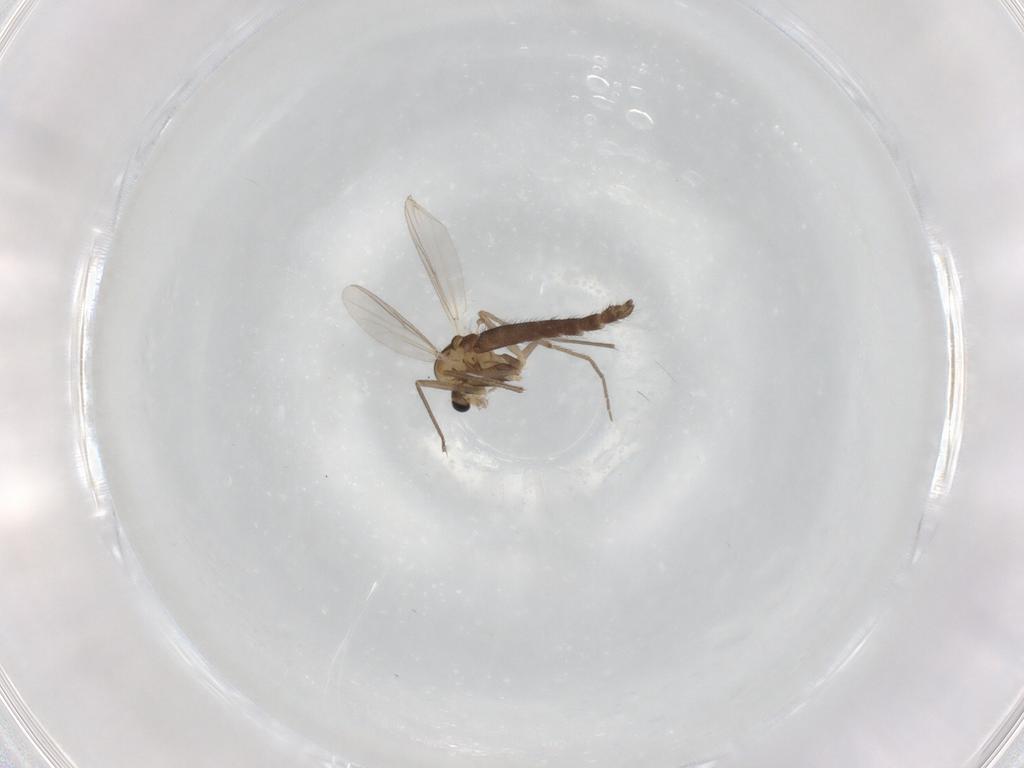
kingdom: Animalia
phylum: Arthropoda
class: Insecta
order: Diptera
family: Chironomidae
